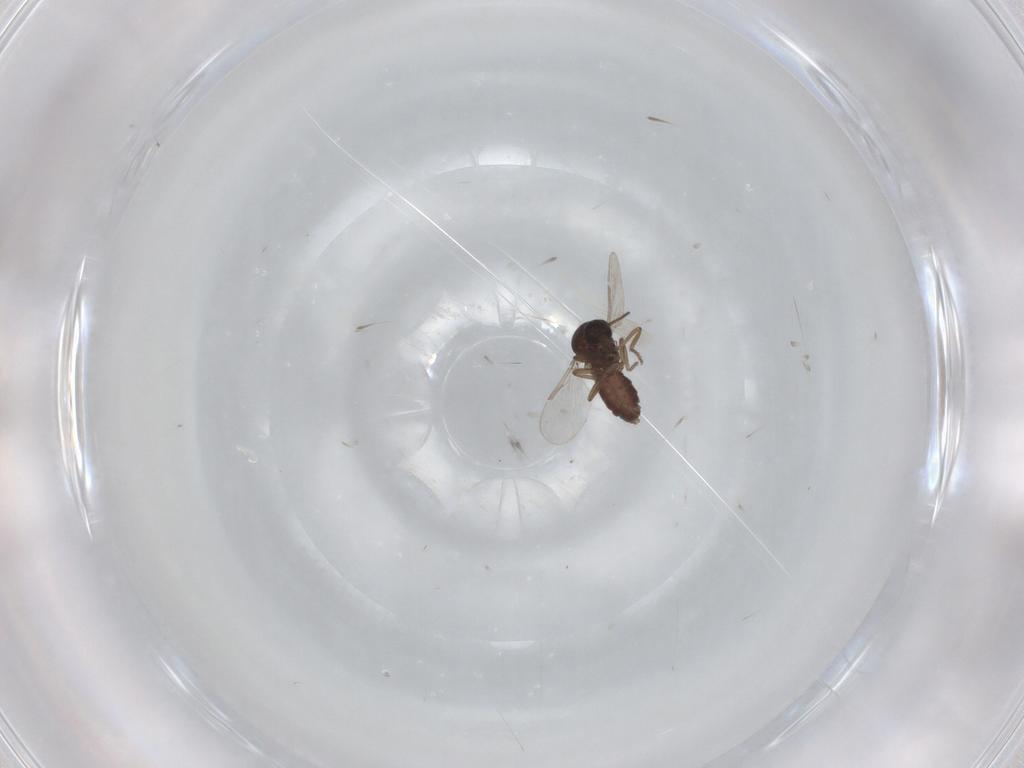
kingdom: Animalia
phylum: Arthropoda
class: Insecta
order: Diptera
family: Ceratopogonidae
